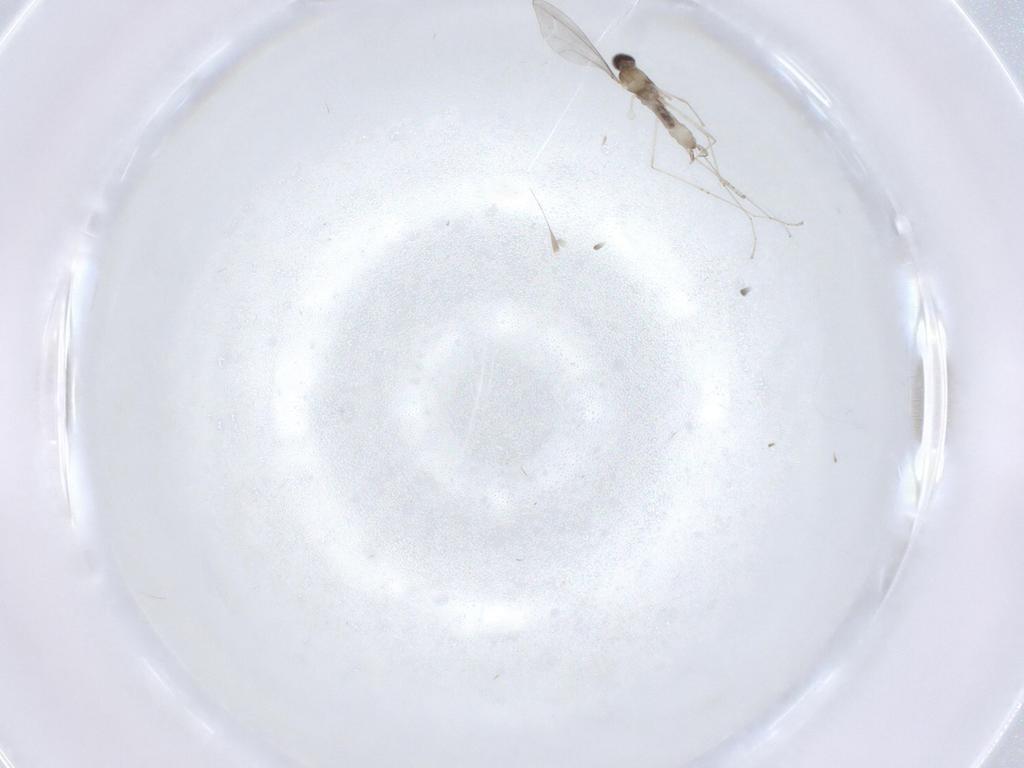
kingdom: Animalia
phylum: Arthropoda
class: Insecta
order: Diptera
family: Cecidomyiidae
